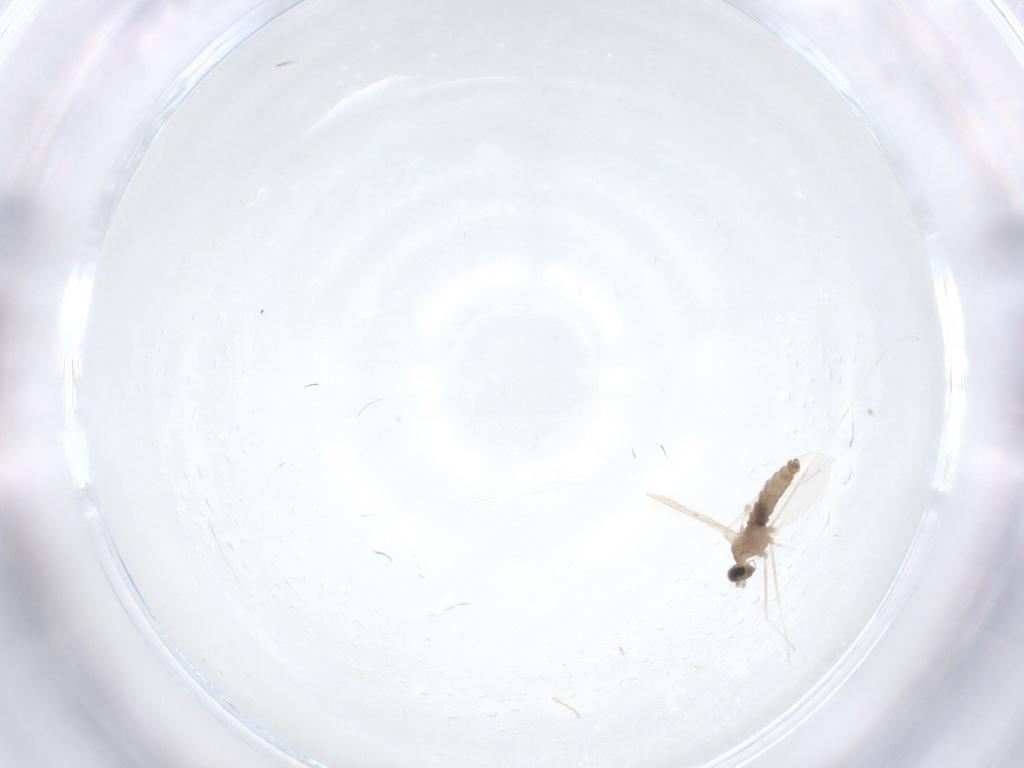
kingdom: Animalia
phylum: Arthropoda
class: Insecta
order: Diptera
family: Cecidomyiidae
